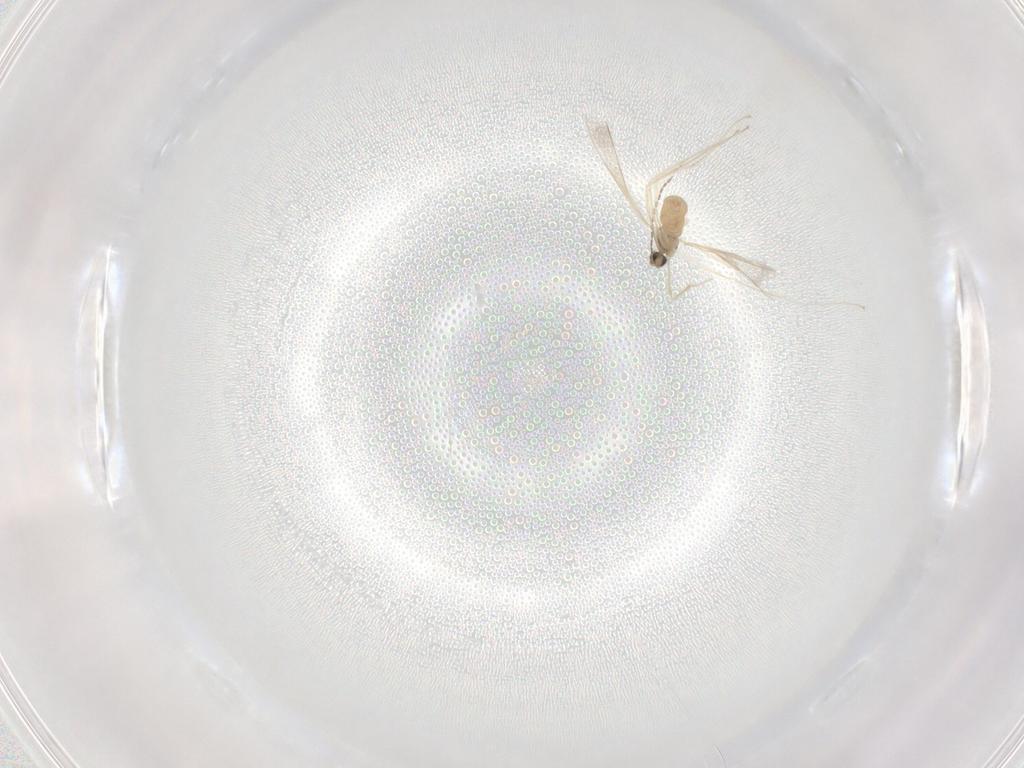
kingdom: Animalia
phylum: Arthropoda
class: Insecta
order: Diptera
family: Cecidomyiidae
